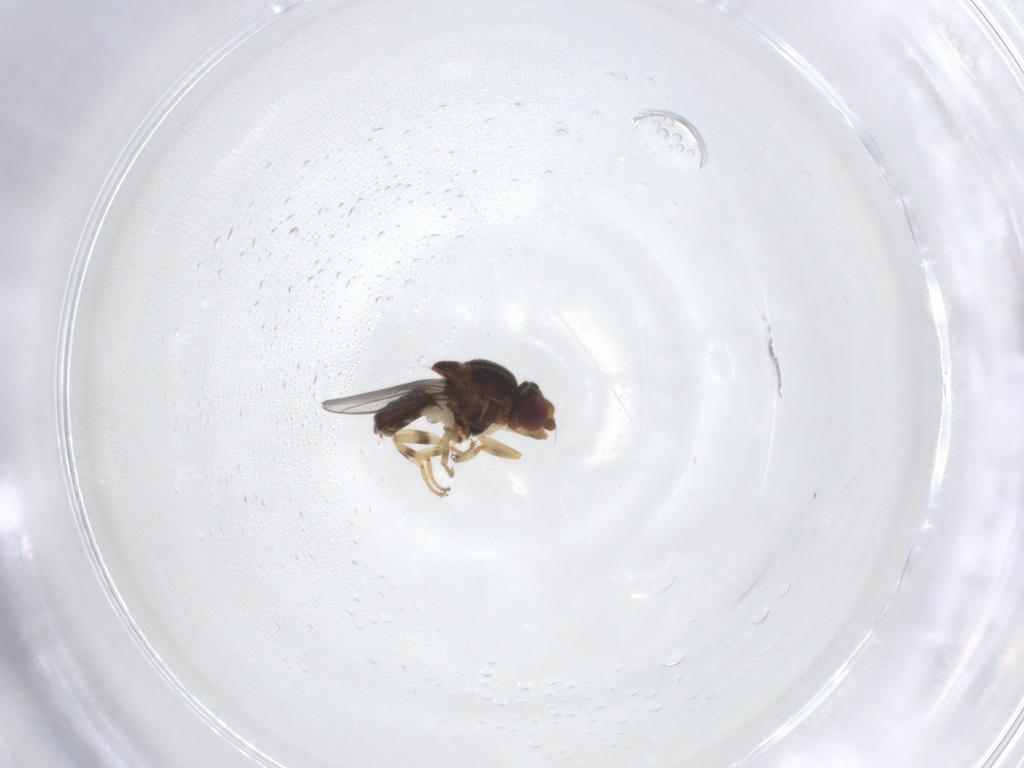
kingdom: Animalia
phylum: Arthropoda
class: Insecta
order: Diptera
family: Chloropidae
